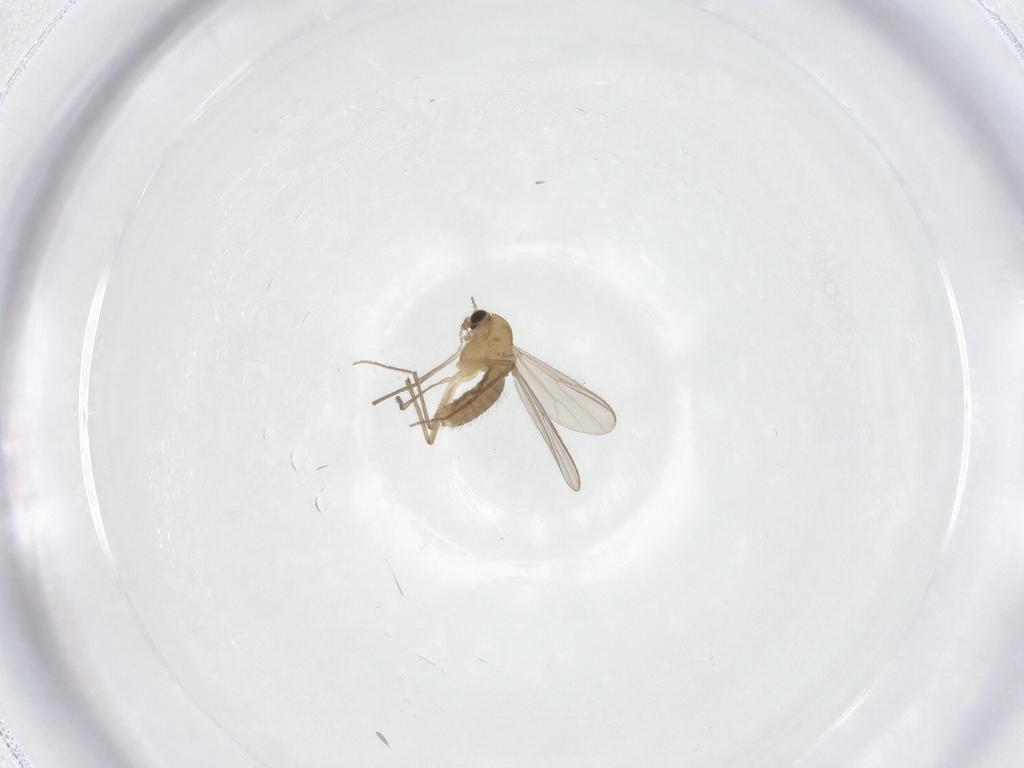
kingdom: Animalia
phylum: Arthropoda
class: Insecta
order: Diptera
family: Chironomidae
